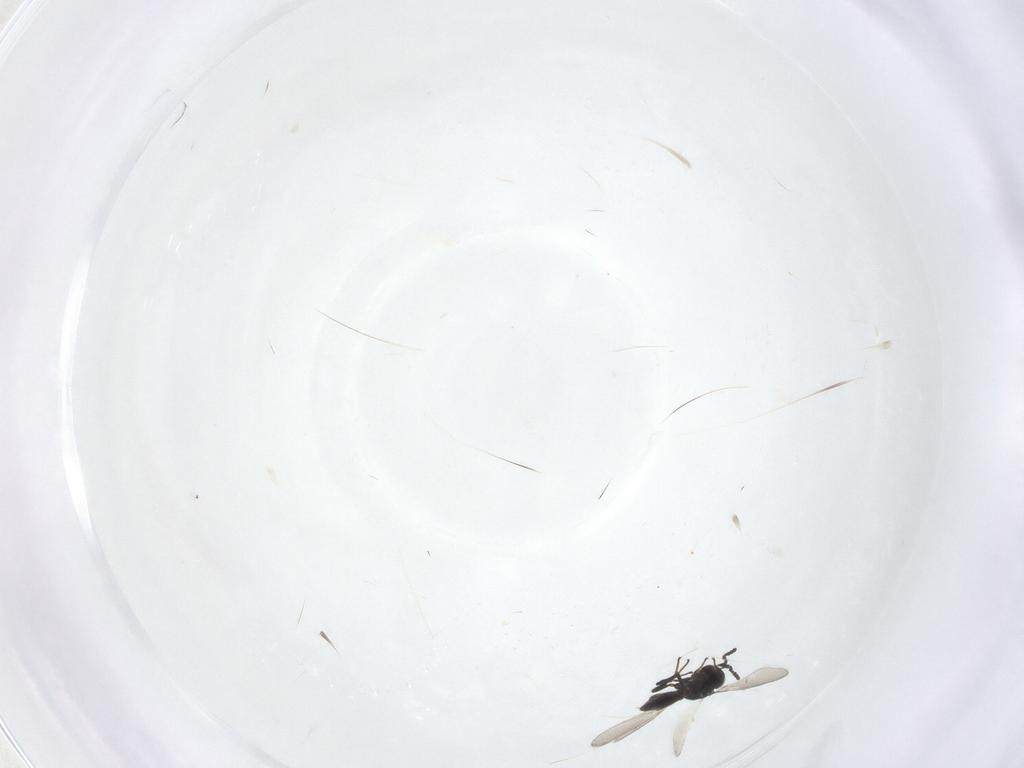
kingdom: Animalia
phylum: Arthropoda
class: Insecta
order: Hymenoptera
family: Platygastridae
